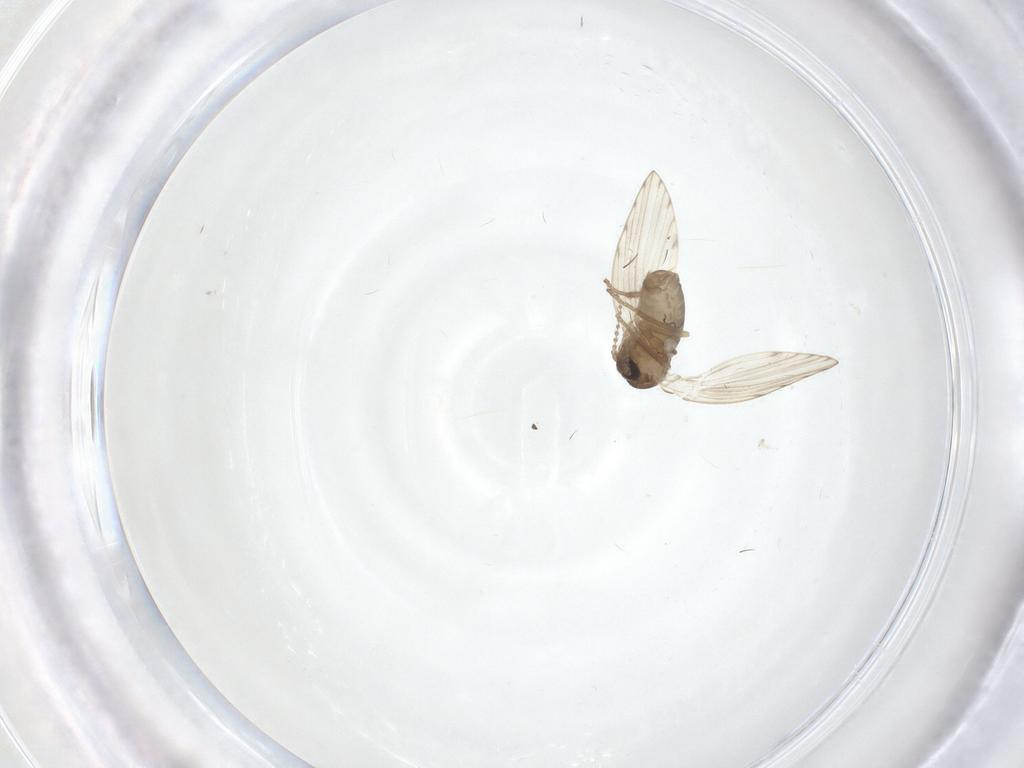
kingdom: Animalia
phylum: Arthropoda
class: Insecta
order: Diptera
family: Psychodidae
